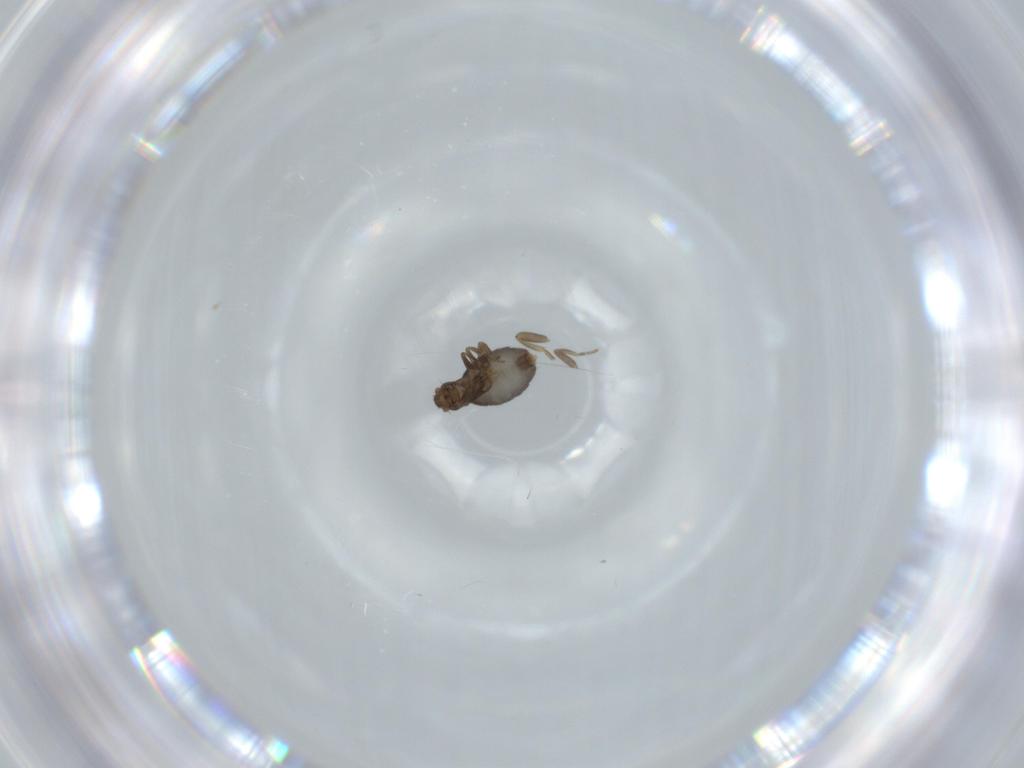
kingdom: Animalia
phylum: Arthropoda
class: Insecta
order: Diptera
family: Phoridae
